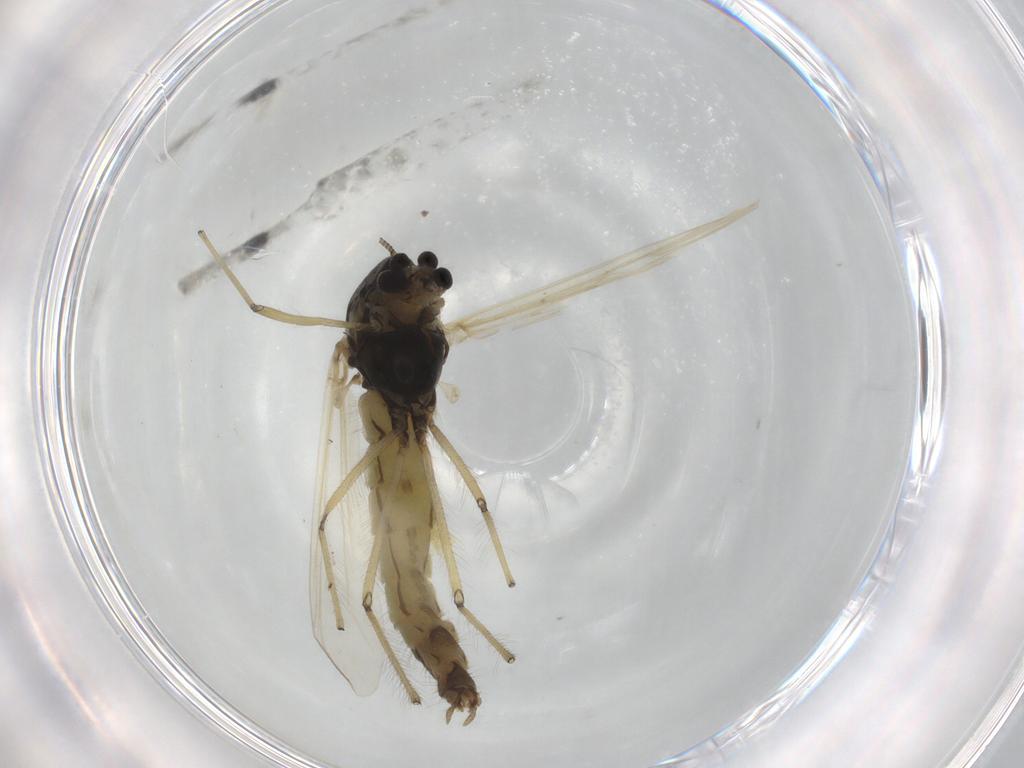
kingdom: Animalia
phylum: Arthropoda
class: Insecta
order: Diptera
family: Chironomidae
